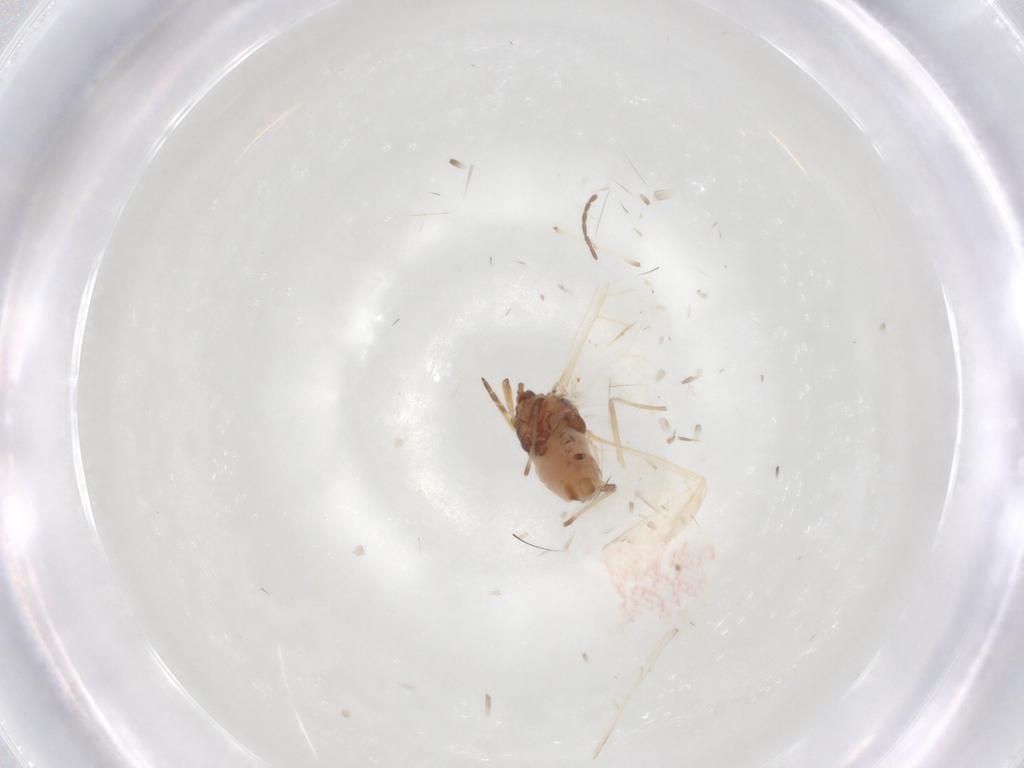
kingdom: Animalia
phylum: Arthropoda
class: Insecta
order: Hemiptera
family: Aphididae
